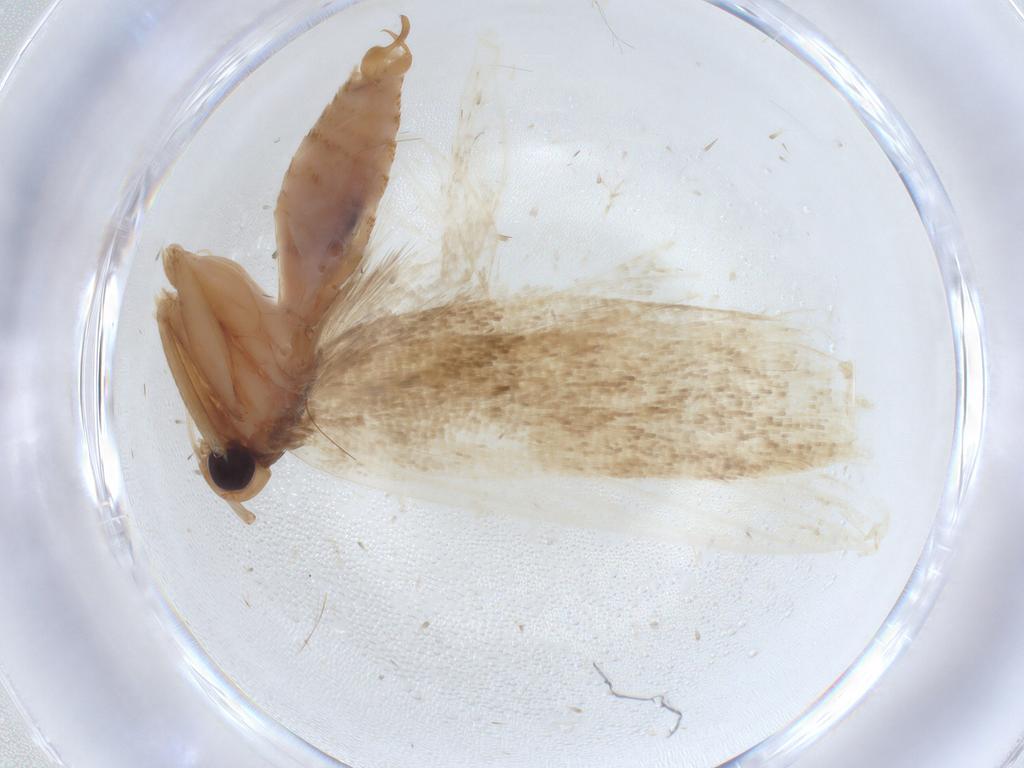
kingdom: Animalia
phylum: Arthropoda
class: Insecta
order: Lepidoptera
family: Lecithoceridae
